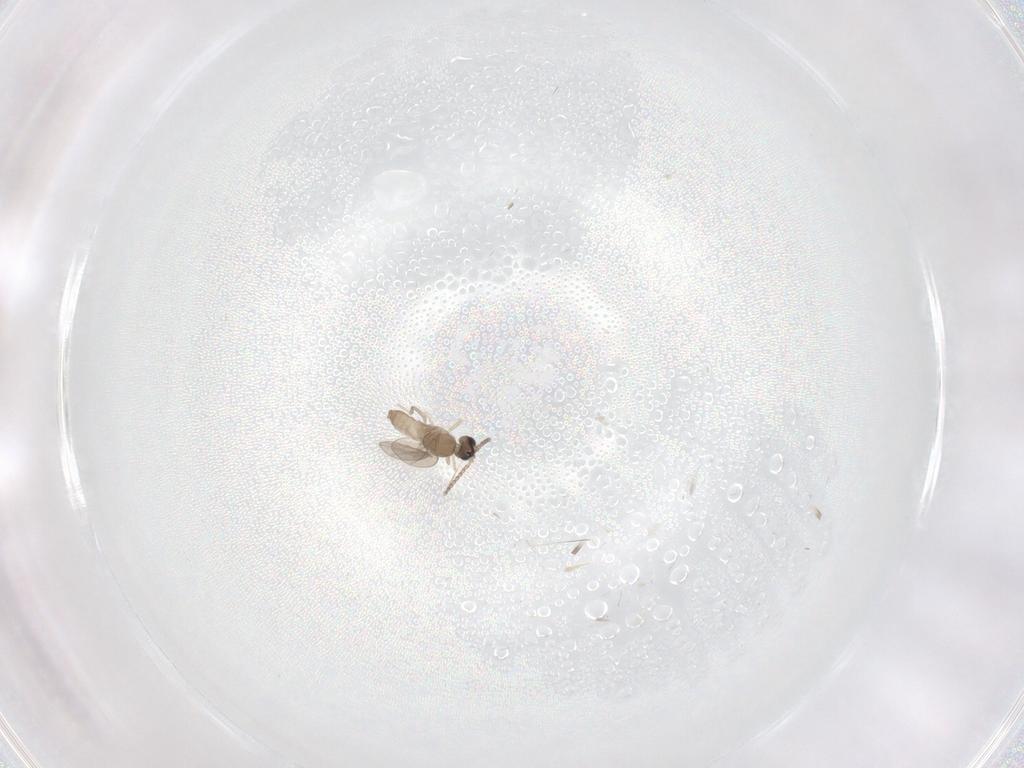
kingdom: Animalia
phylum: Arthropoda
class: Insecta
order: Diptera
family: Cecidomyiidae
